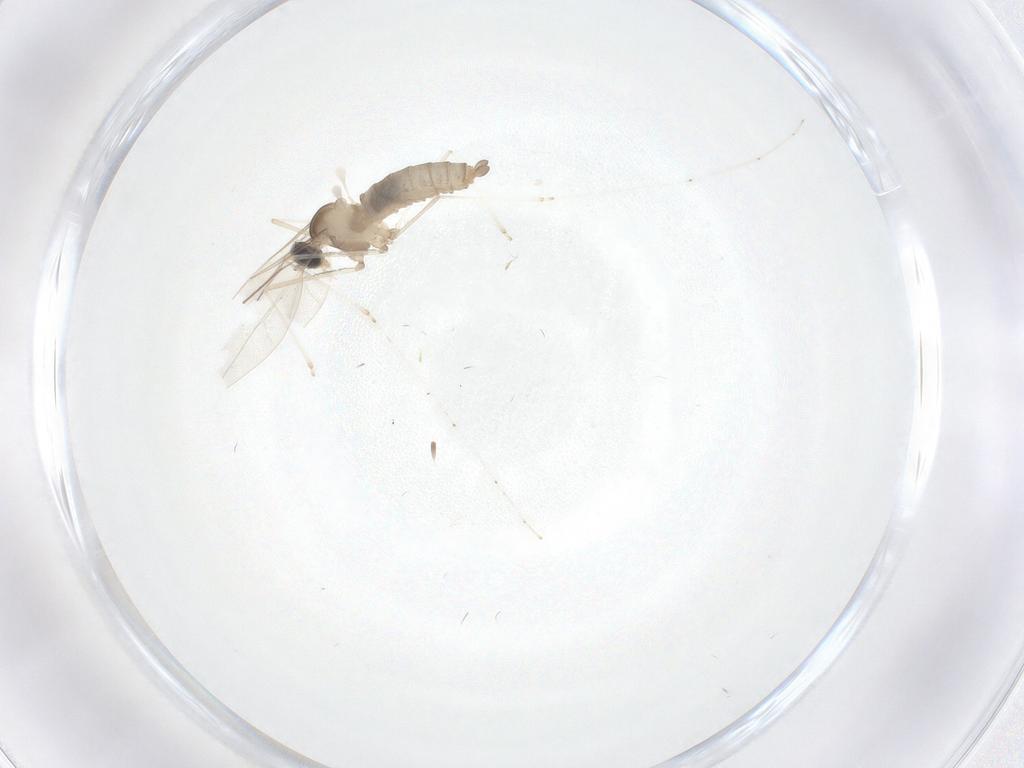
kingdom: Animalia
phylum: Arthropoda
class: Insecta
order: Diptera
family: Cecidomyiidae
